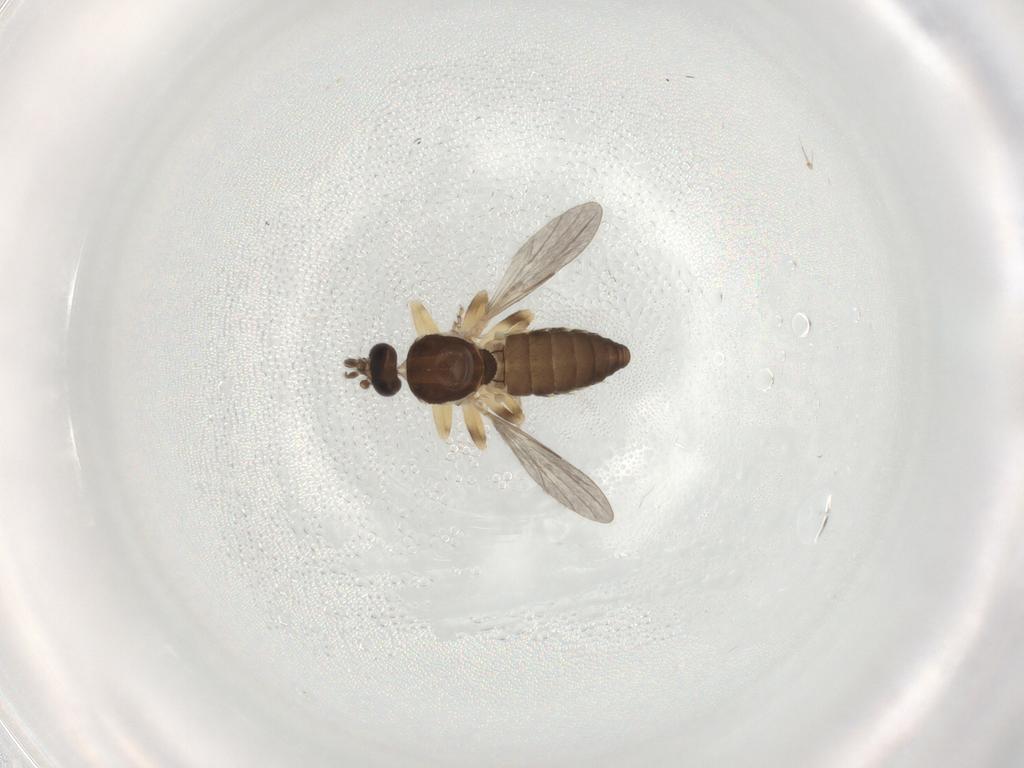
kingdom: Animalia
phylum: Arthropoda
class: Insecta
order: Diptera
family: Ceratopogonidae
